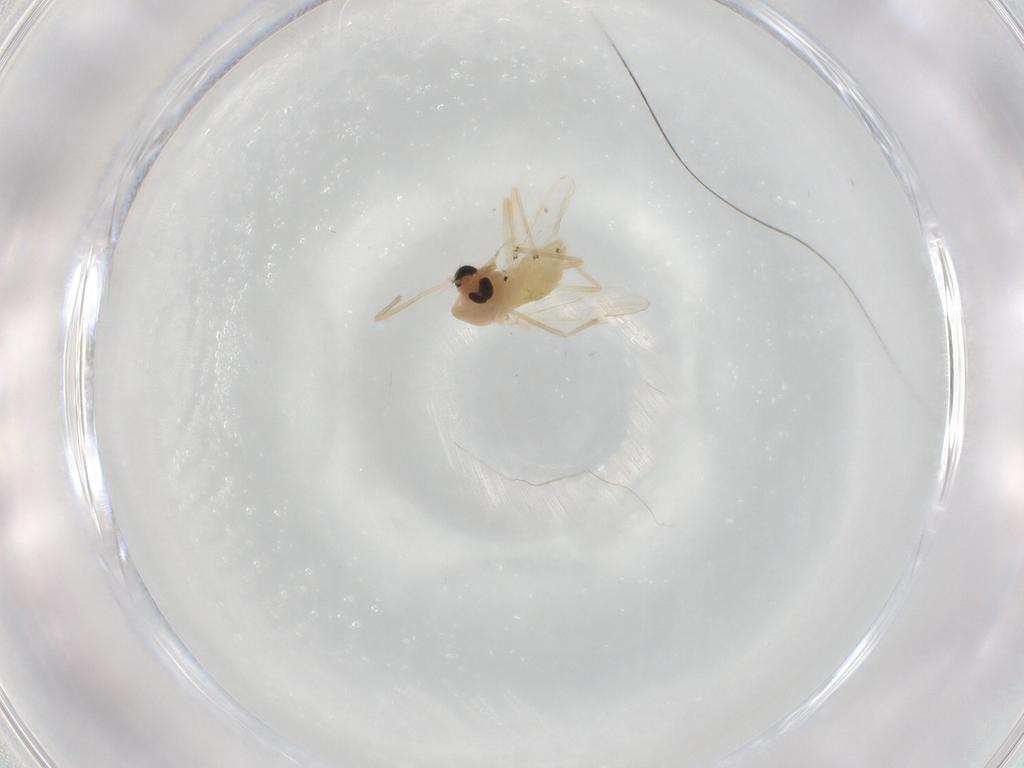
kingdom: Animalia
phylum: Arthropoda
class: Insecta
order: Diptera
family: Chironomidae
